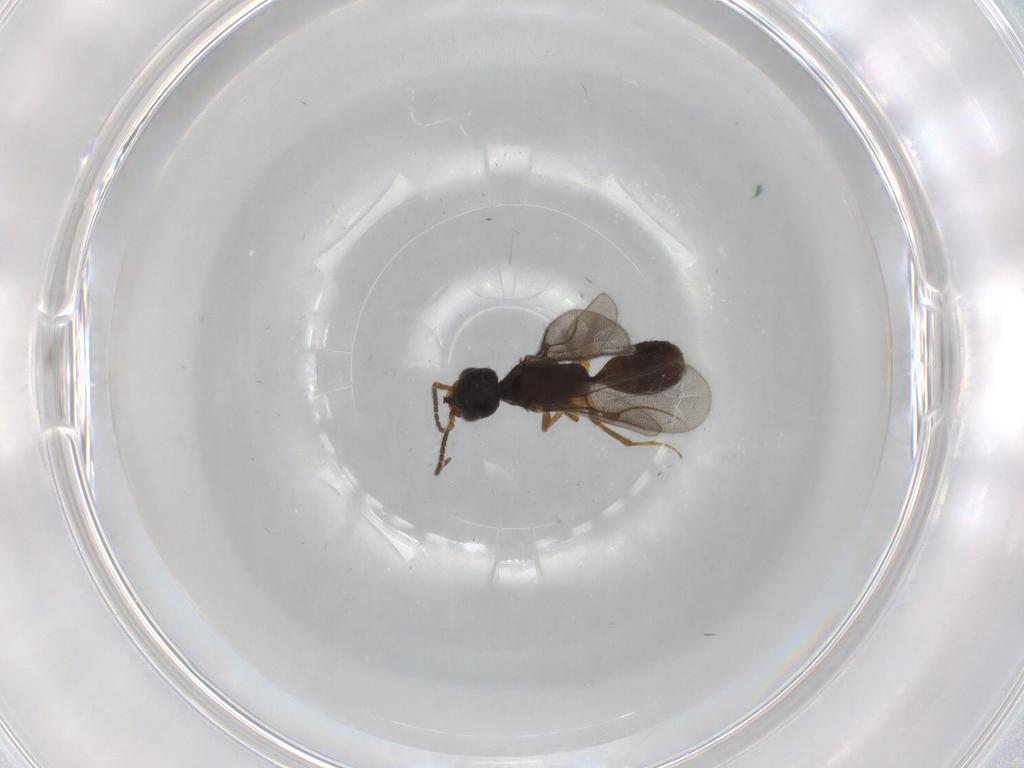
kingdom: Animalia
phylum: Arthropoda
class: Insecta
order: Hymenoptera
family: Bethylidae
